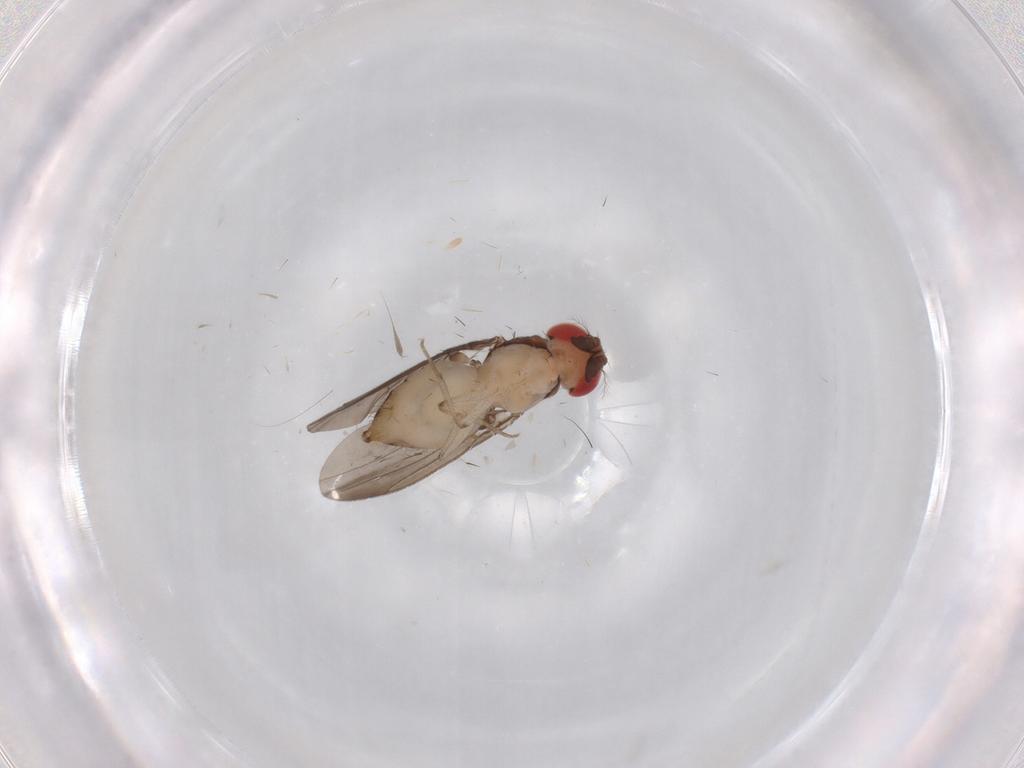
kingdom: Animalia
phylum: Arthropoda
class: Insecta
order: Diptera
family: Drosophilidae
